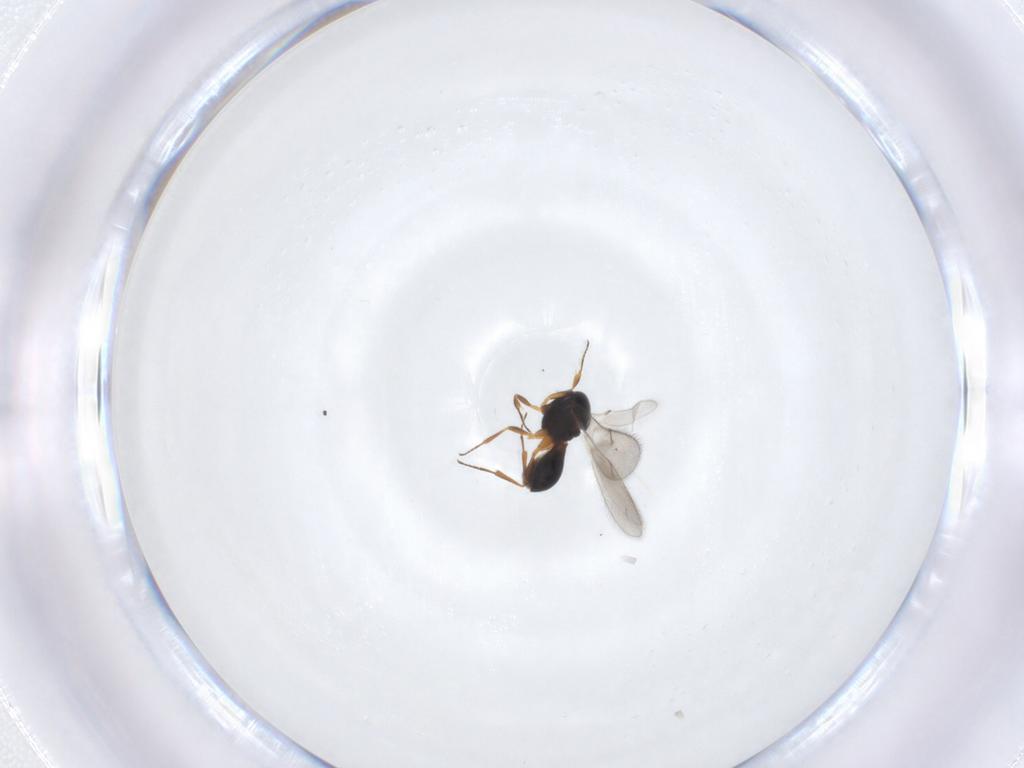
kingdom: Animalia
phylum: Arthropoda
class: Insecta
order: Hymenoptera
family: Scelionidae
